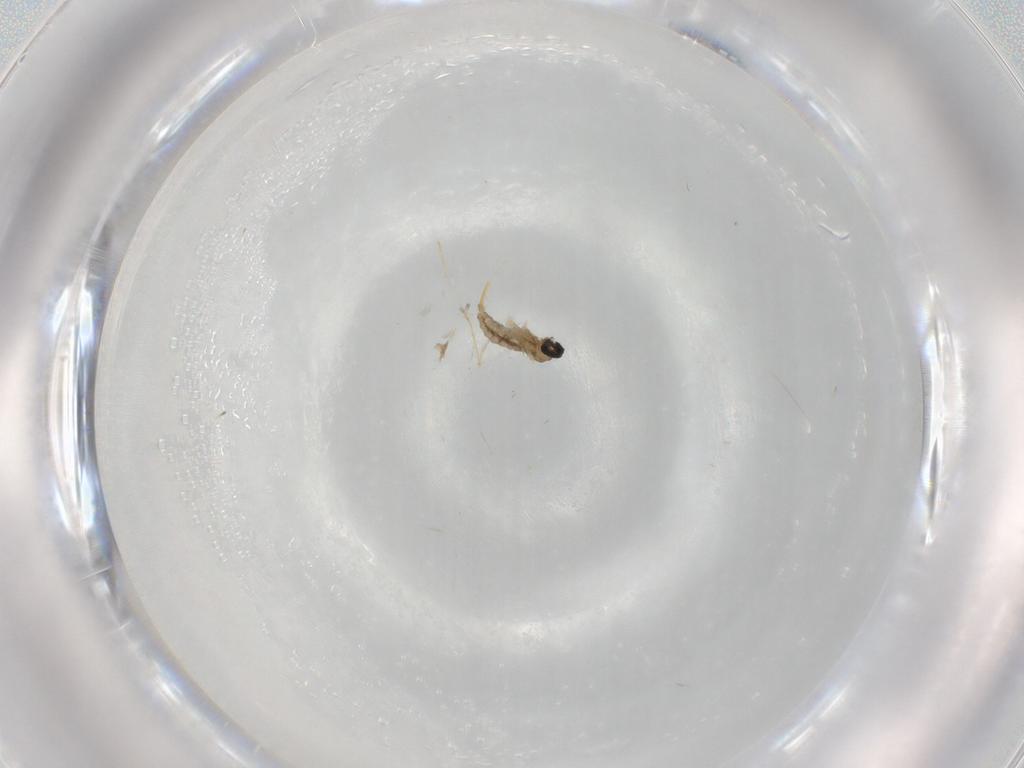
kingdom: Animalia
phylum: Arthropoda
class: Insecta
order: Diptera
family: Cecidomyiidae
